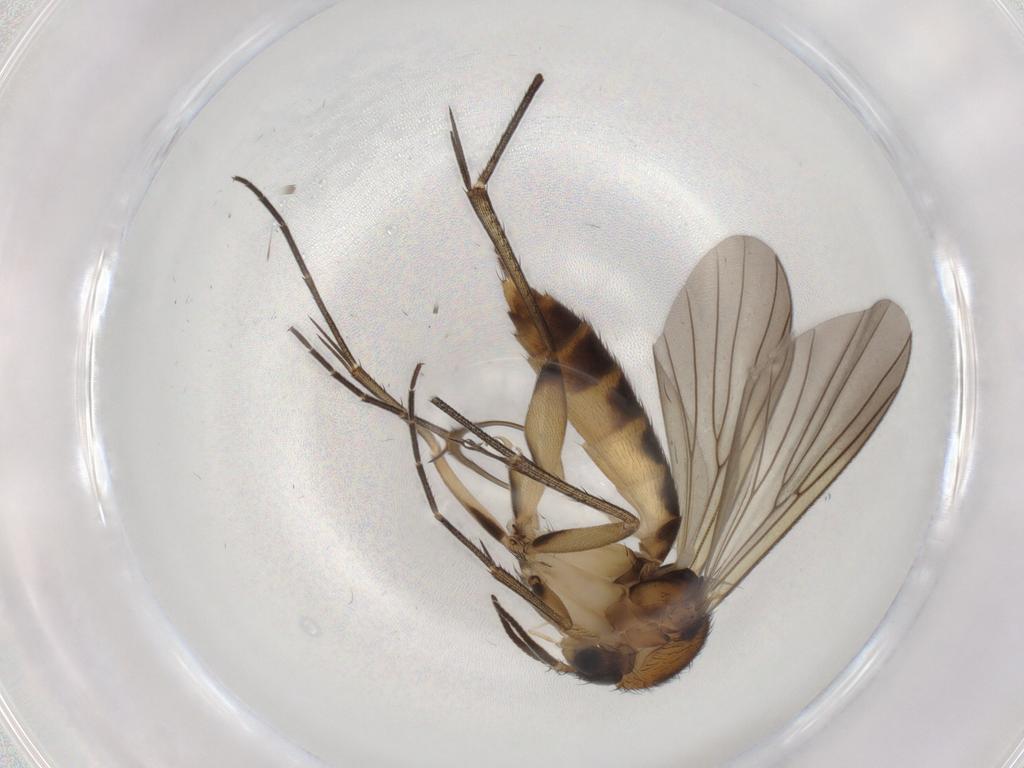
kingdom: Animalia
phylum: Arthropoda
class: Insecta
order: Diptera
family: Mycetophilidae
